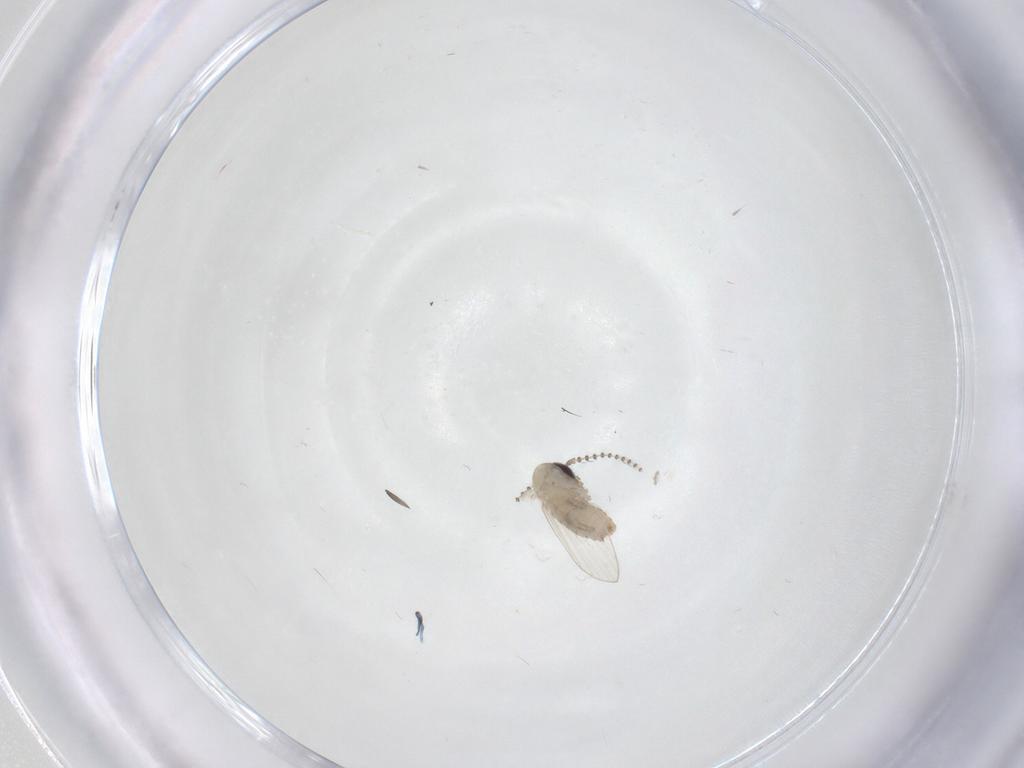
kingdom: Animalia
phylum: Arthropoda
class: Insecta
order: Diptera
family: Psychodidae
